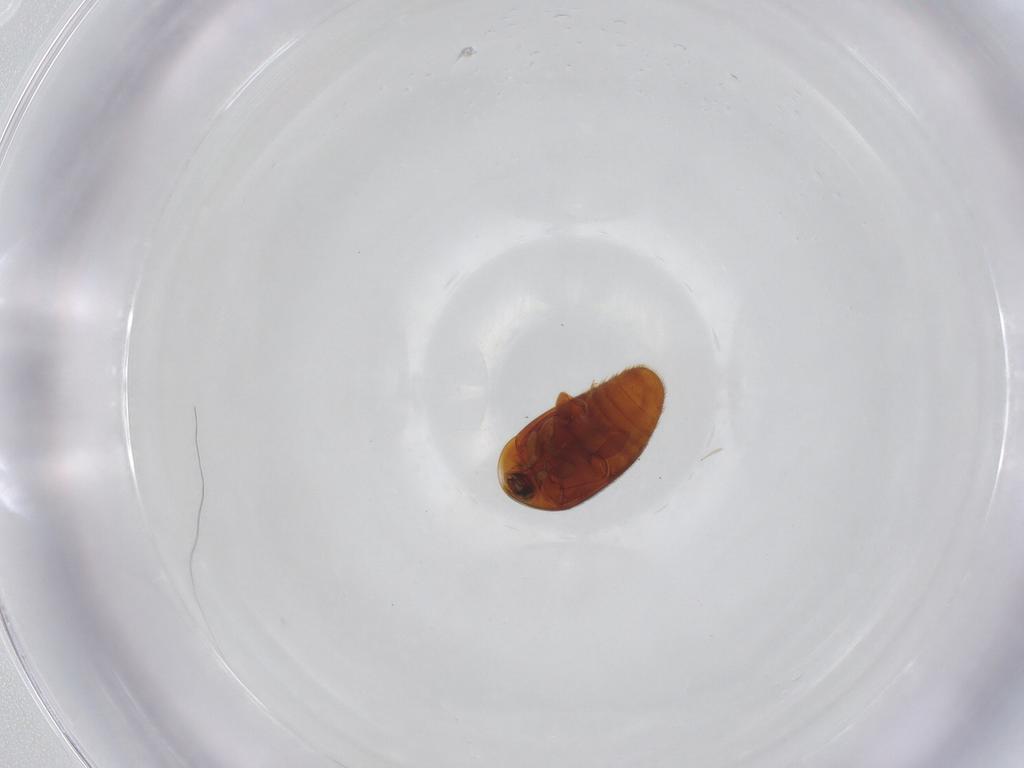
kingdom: Animalia
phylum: Arthropoda
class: Insecta
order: Coleoptera
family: Corylophidae
